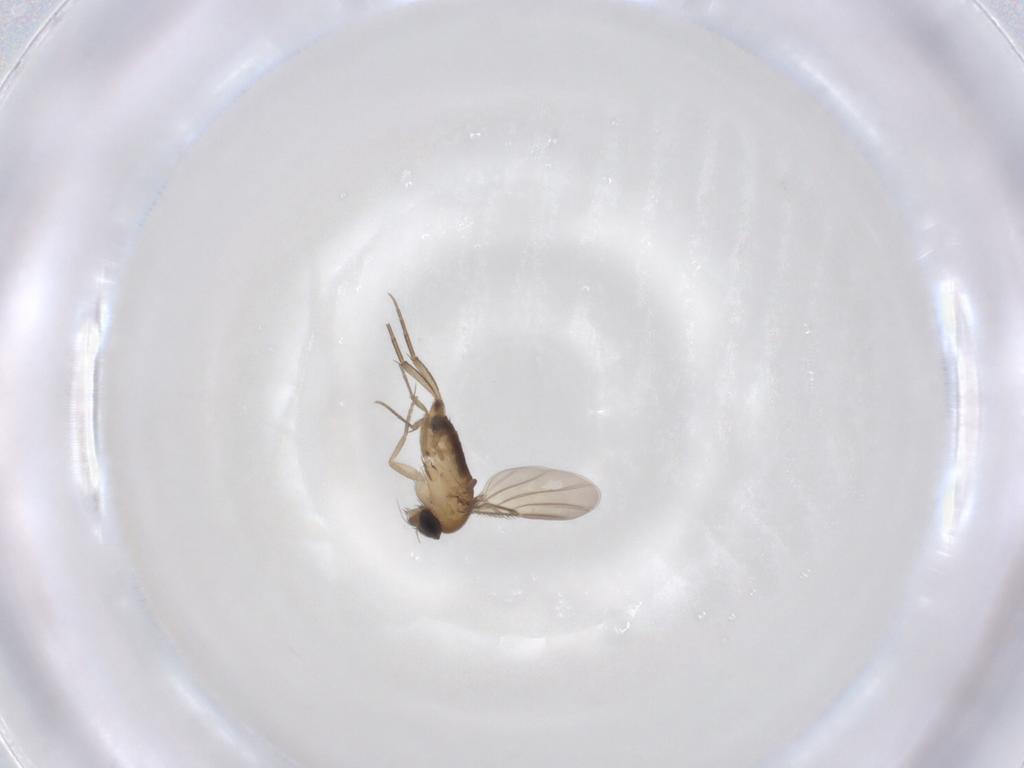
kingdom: Animalia
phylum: Arthropoda
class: Insecta
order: Diptera
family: Phoridae
